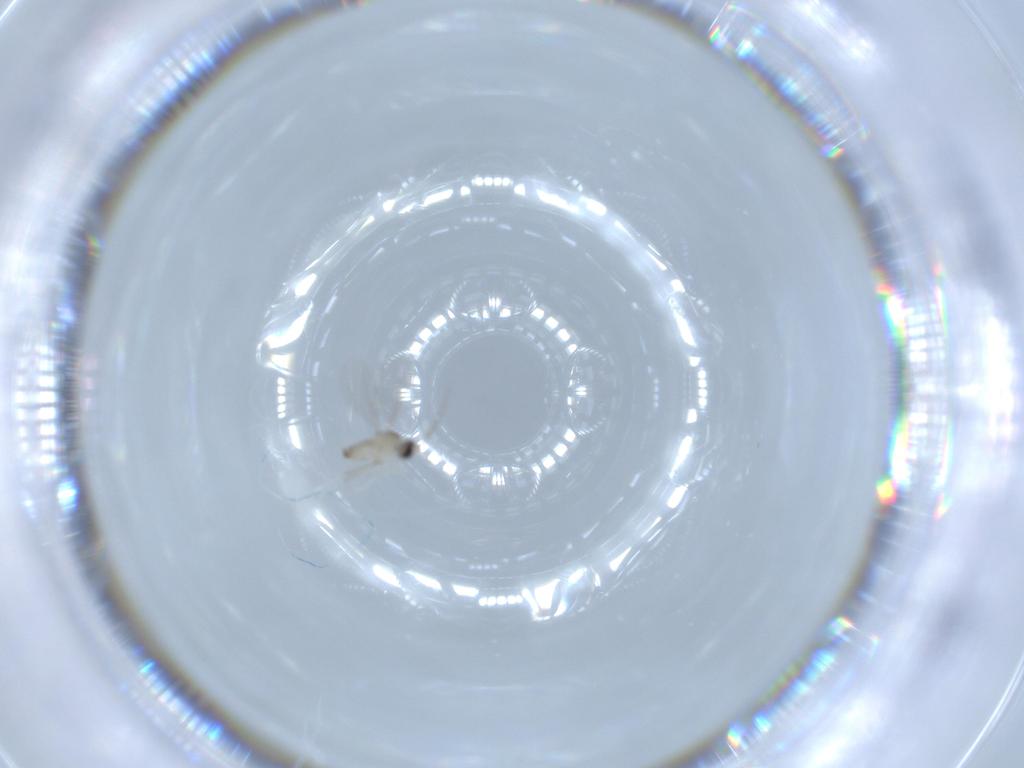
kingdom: Animalia
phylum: Arthropoda
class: Insecta
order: Diptera
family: Cecidomyiidae
